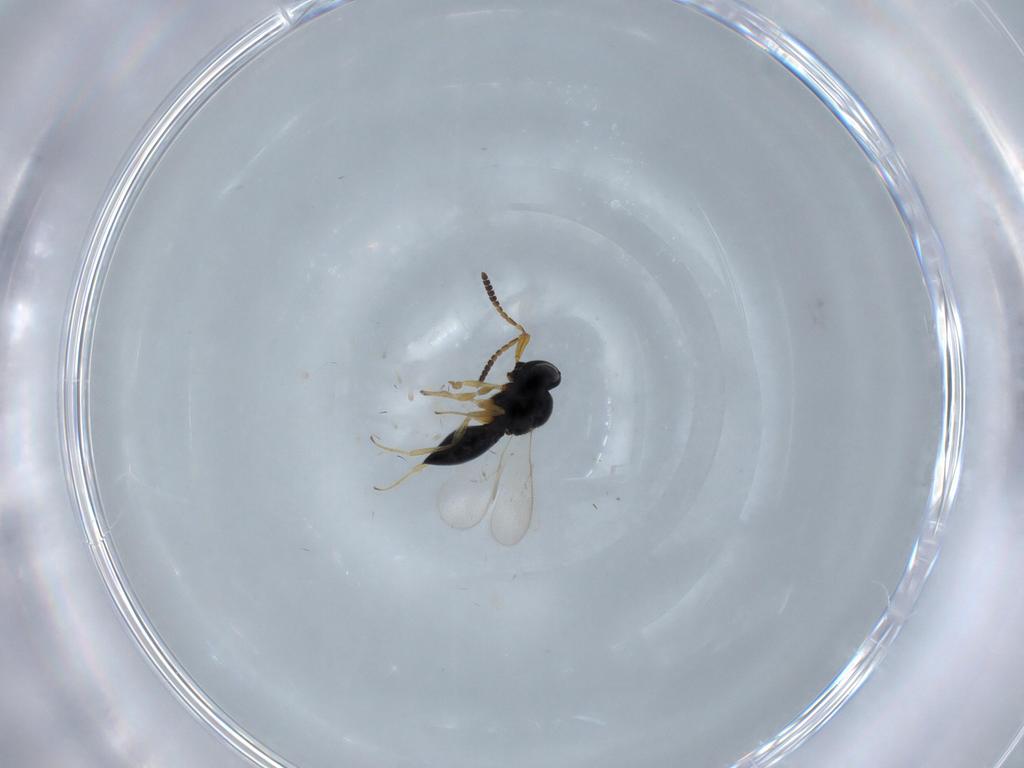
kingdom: Animalia
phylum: Arthropoda
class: Insecta
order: Hymenoptera
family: Scelionidae
